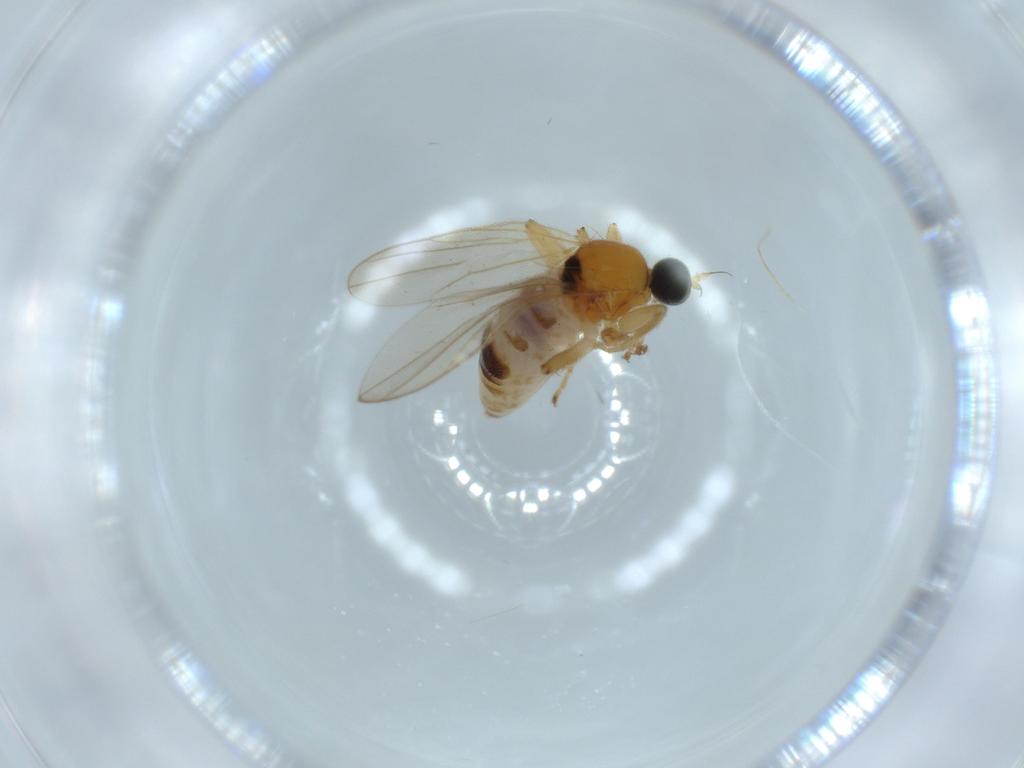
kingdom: Animalia
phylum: Arthropoda
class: Insecta
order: Diptera
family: Hybotidae
